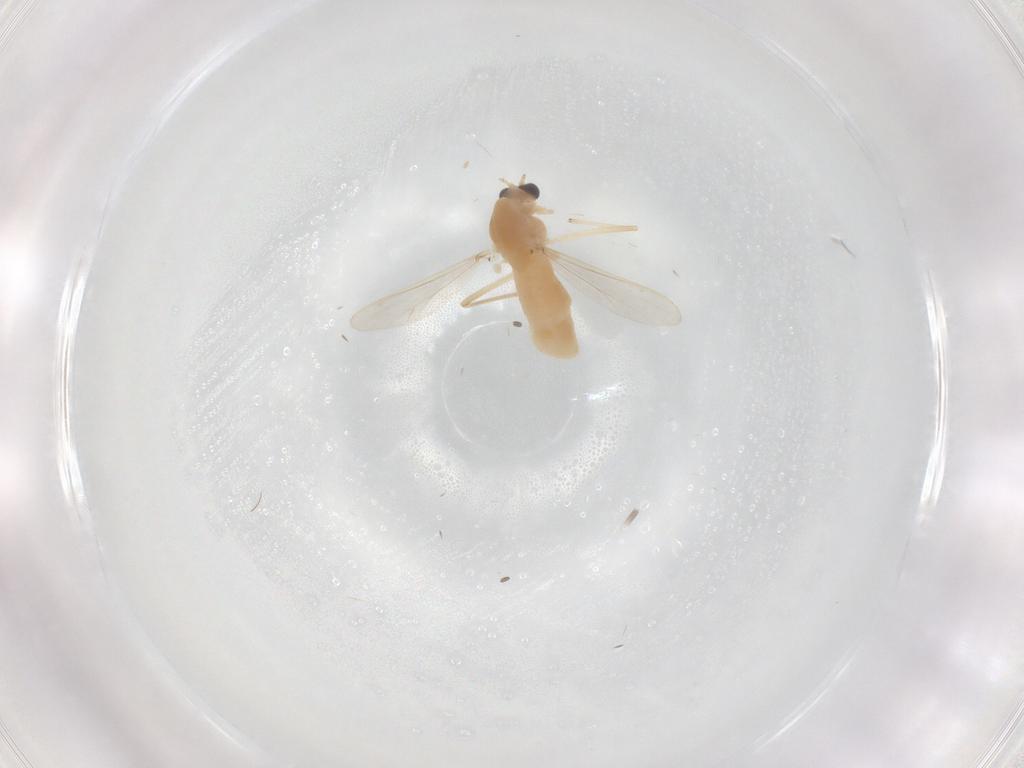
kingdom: Animalia
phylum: Arthropoda
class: Insecta
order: Diptera
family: Chironomidae
